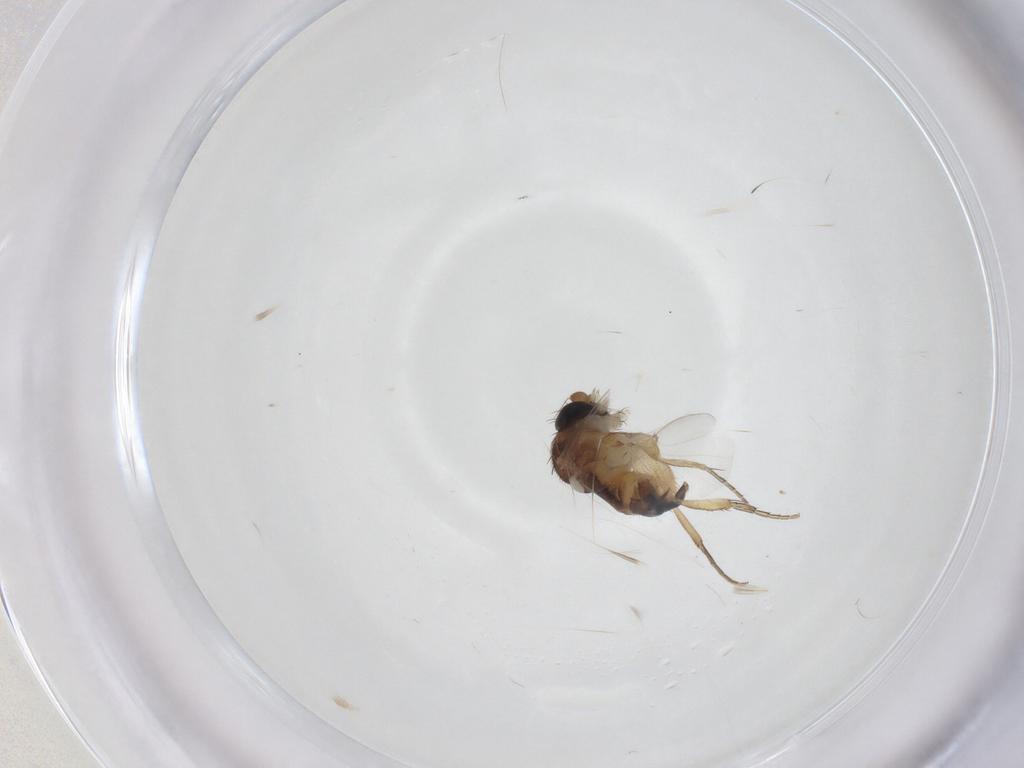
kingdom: Animalia
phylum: Arthropoda
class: Insecta
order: Diptera
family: Phoridae
